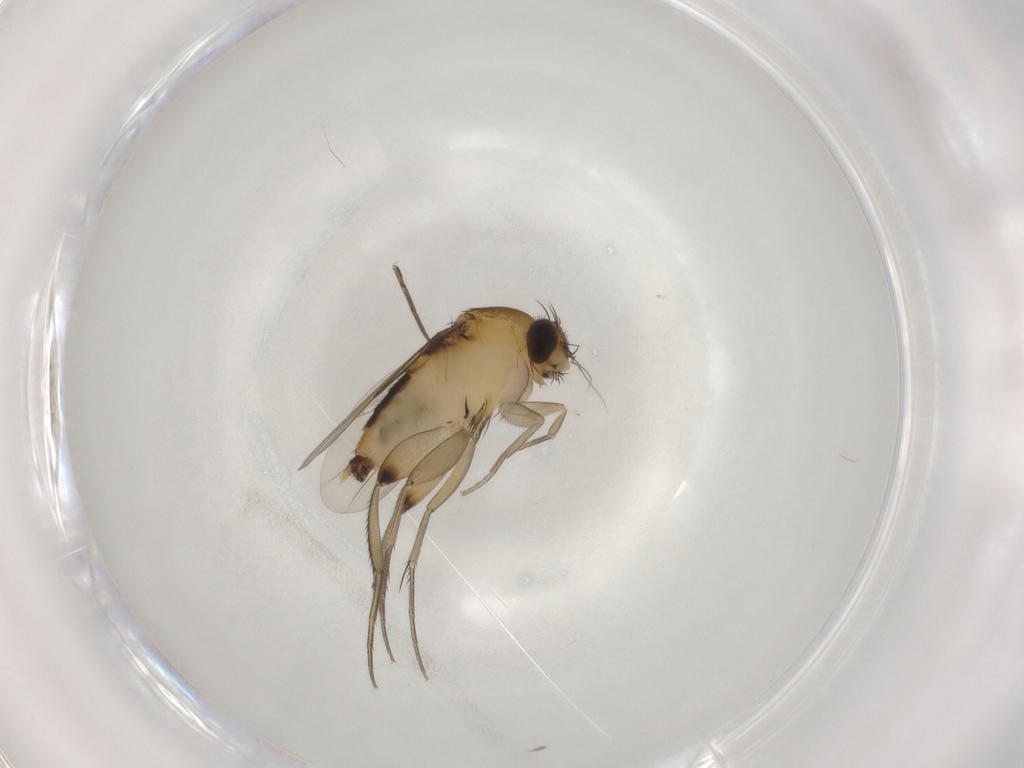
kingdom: Animalia
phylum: Arthropoda
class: Insecta
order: Diptera
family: Phoridae
